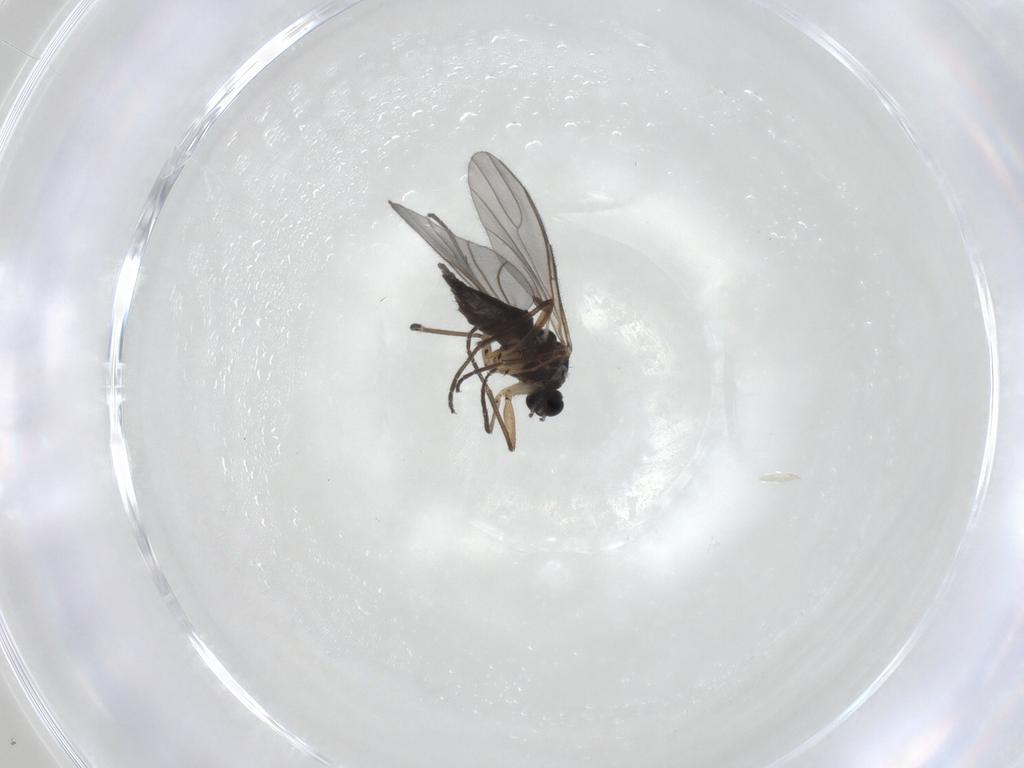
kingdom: Animalia
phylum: Arthropoda
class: Insecta
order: Diptera
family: Sciaridae
